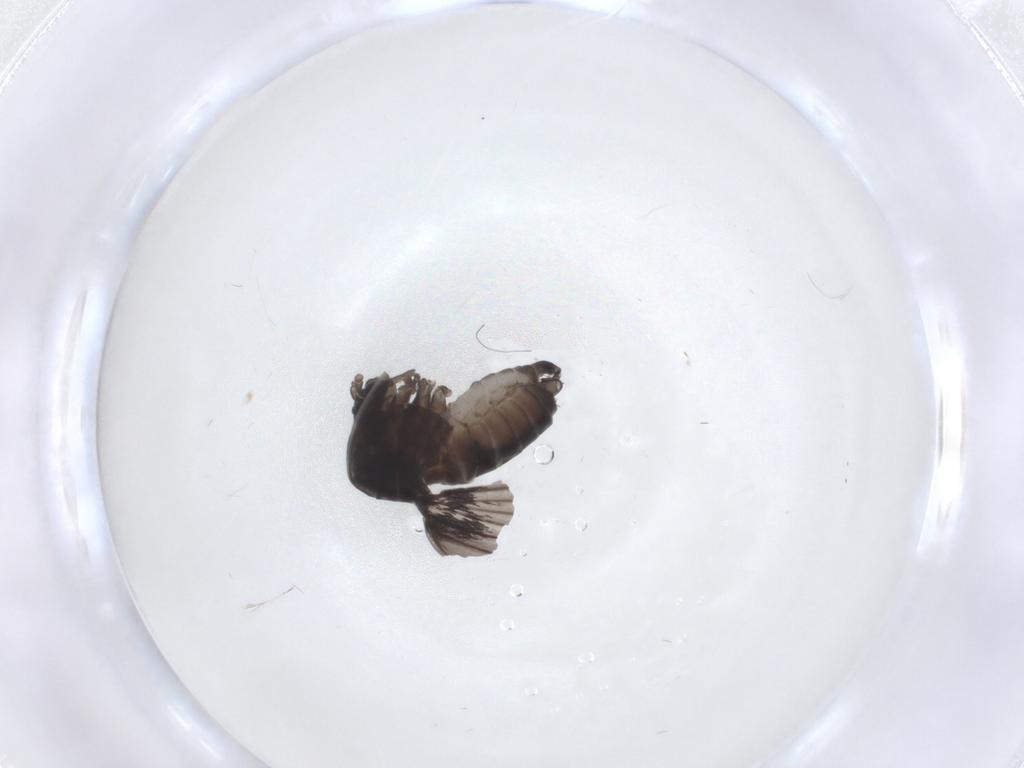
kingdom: Animalia
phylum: Arthropoda
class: Insecta
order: Diptera
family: Psychodidae
